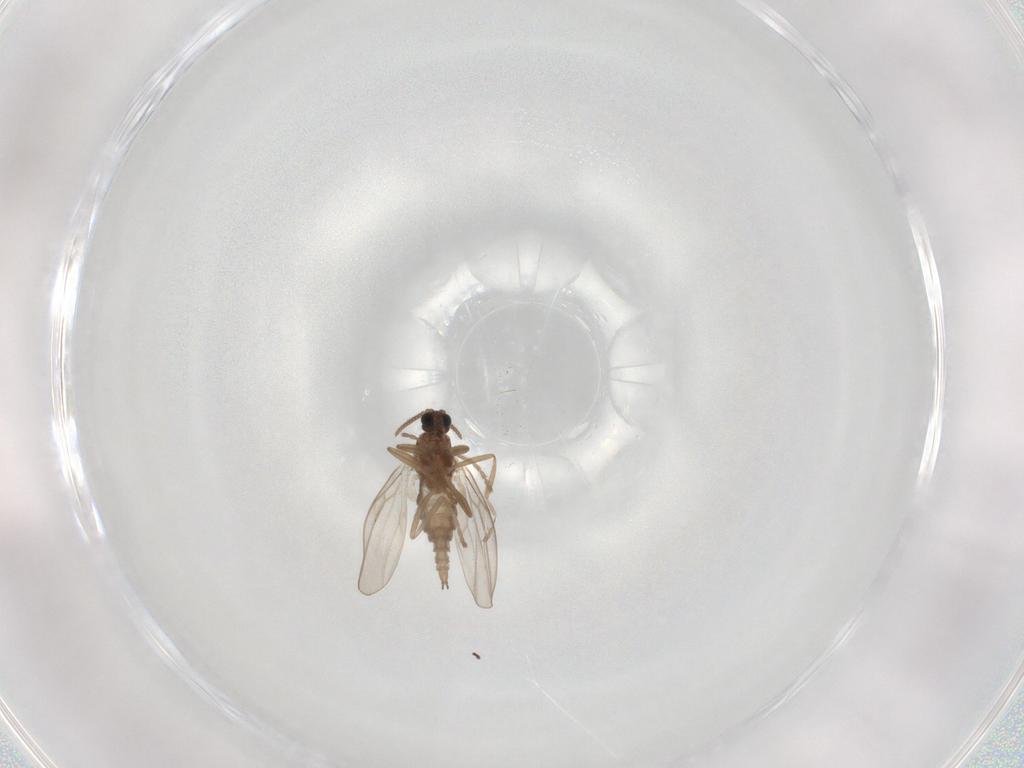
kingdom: Animalia
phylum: Arthropoda
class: Insecta
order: Diptera
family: Cecidomyiidae
